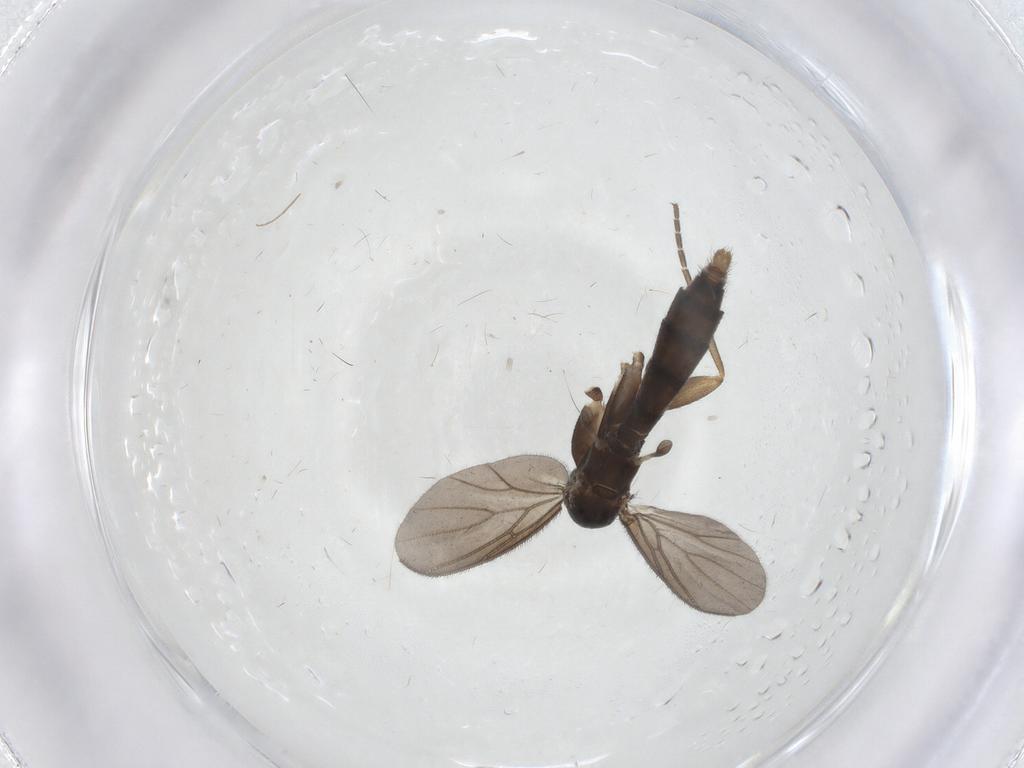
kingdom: Animalia
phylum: Arthropoda
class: Insecta
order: Diptera
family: Mycetophilidae
